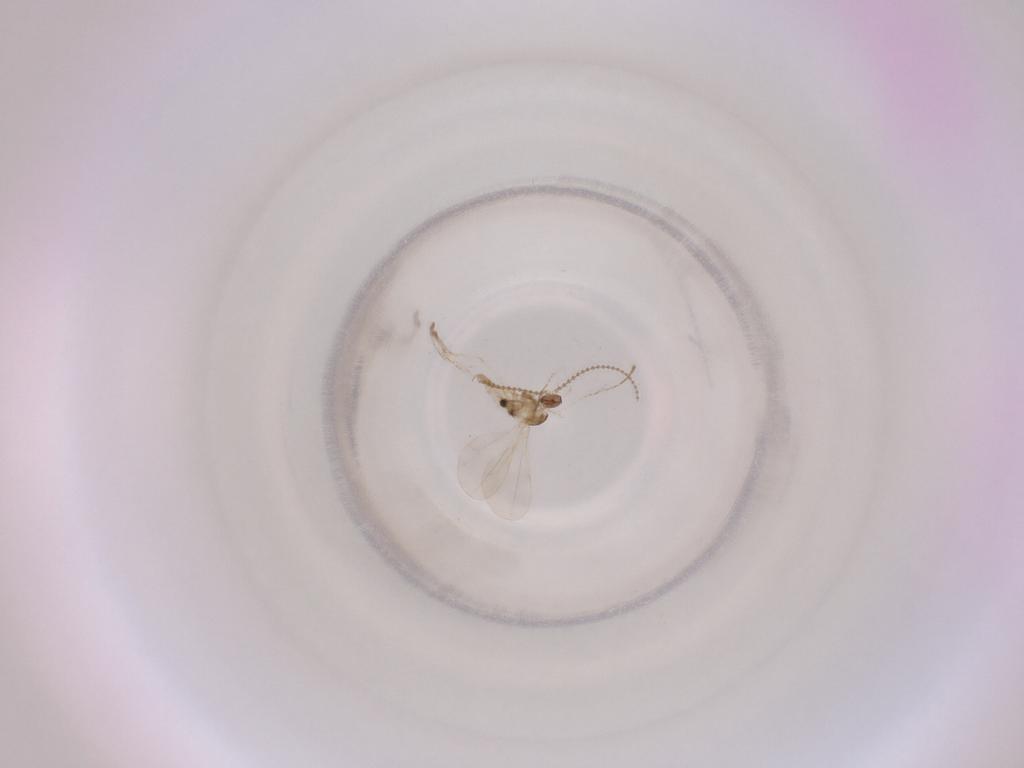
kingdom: Animalia
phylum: Arthropoda
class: Insecta
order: Diptera
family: Cecidomyiidae
